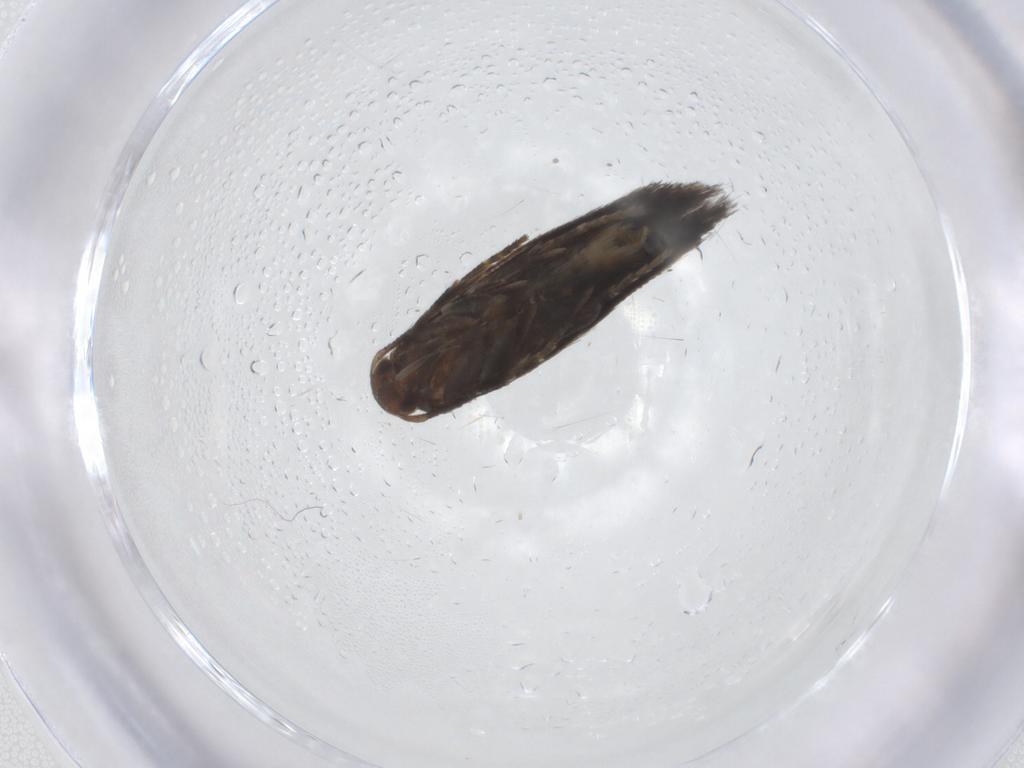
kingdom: Animalia
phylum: Arthropoda
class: Insecta
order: Lepidoptera
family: Elachistidae
